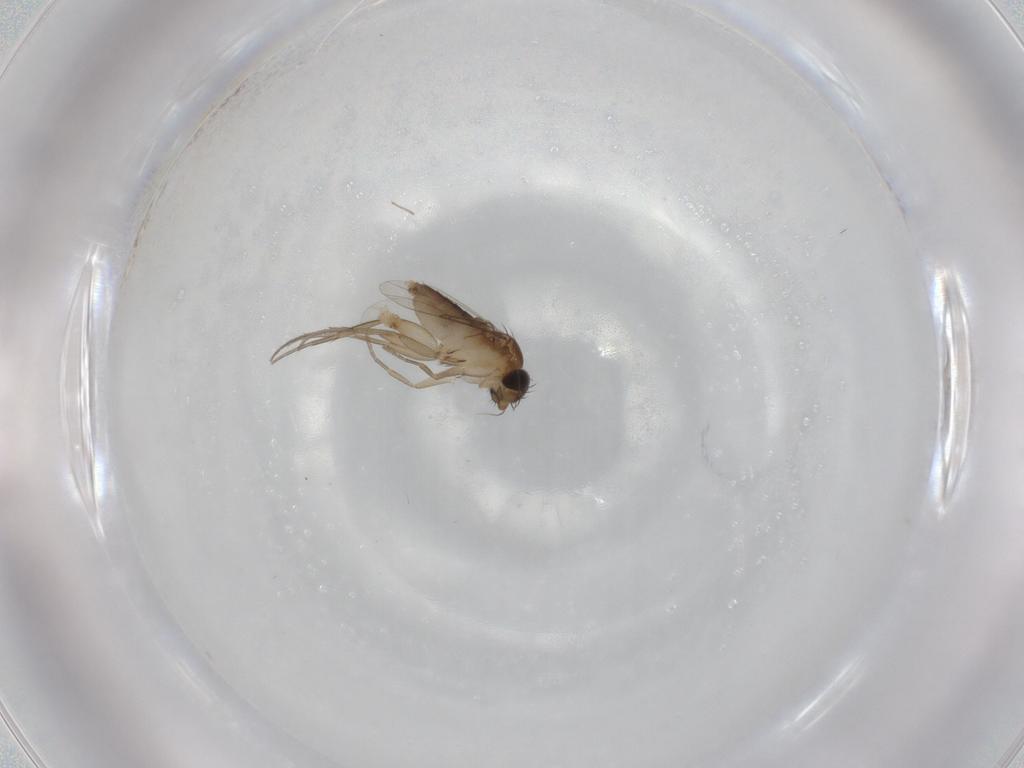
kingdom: Animalia
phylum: Arthropoda
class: Insecta
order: Diptera
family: Phoridae
